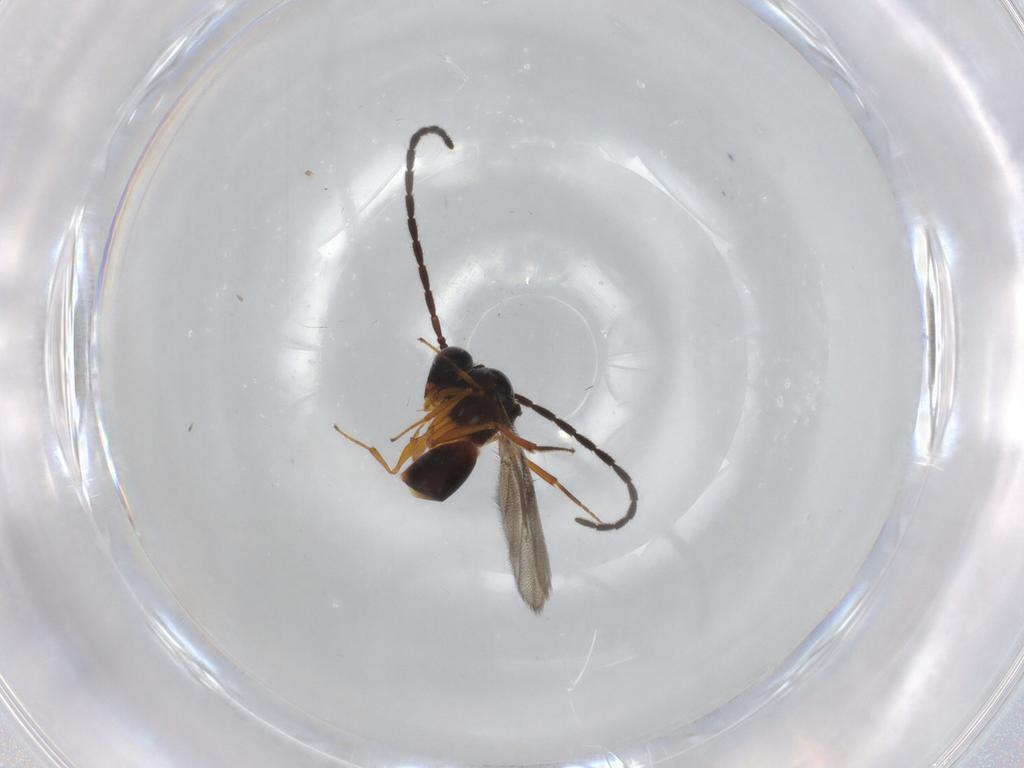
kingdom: Animalia
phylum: Arthropoda
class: Insecta
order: Hymenoptera
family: Figitidae
